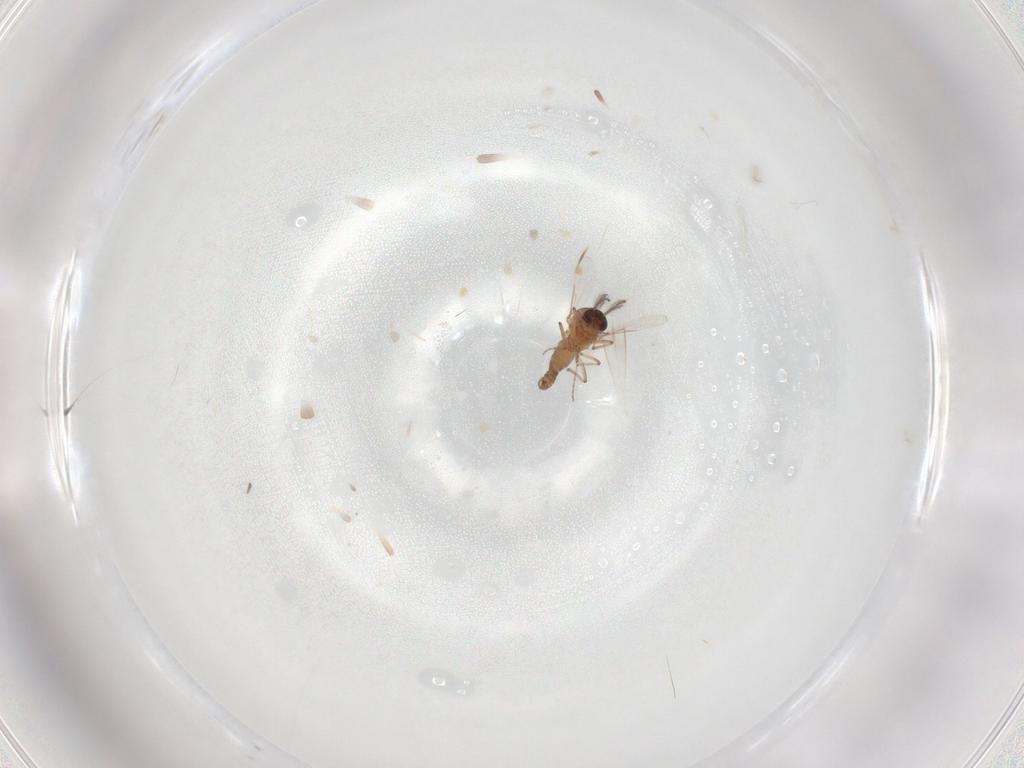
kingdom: Animalia
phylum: Arthropoda
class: Insecta
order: Diptera
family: Ceratopogonidae
